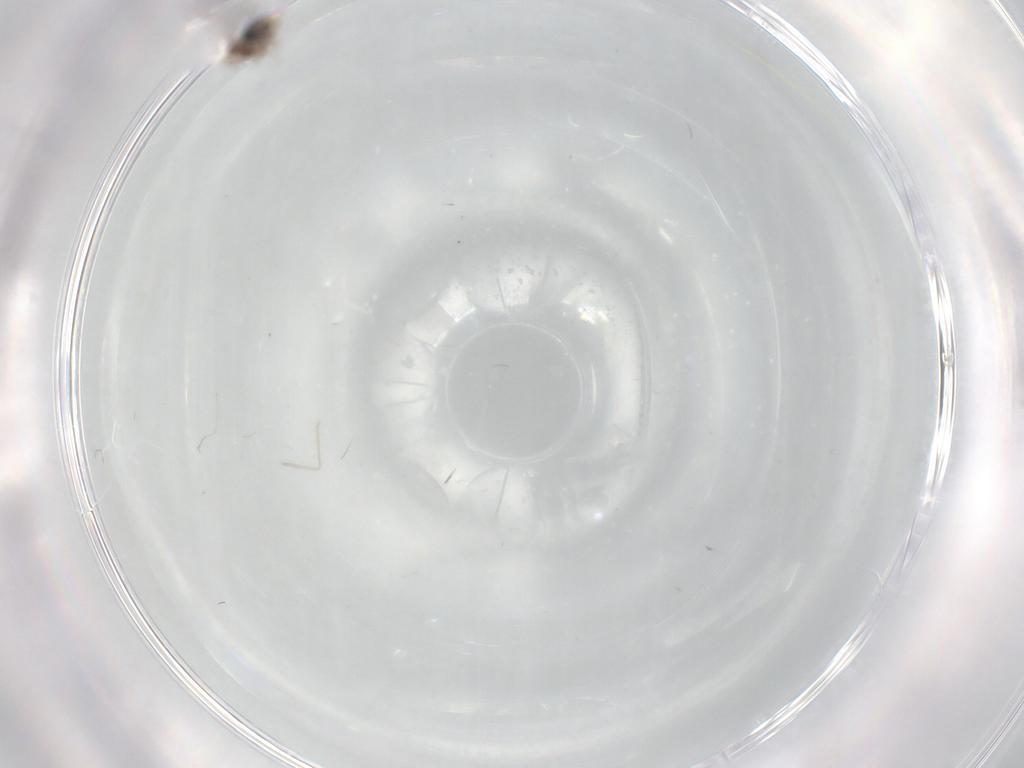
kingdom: Animalia
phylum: Arthropoda
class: Insecta
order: Diptera
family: Cecidomyiidae
